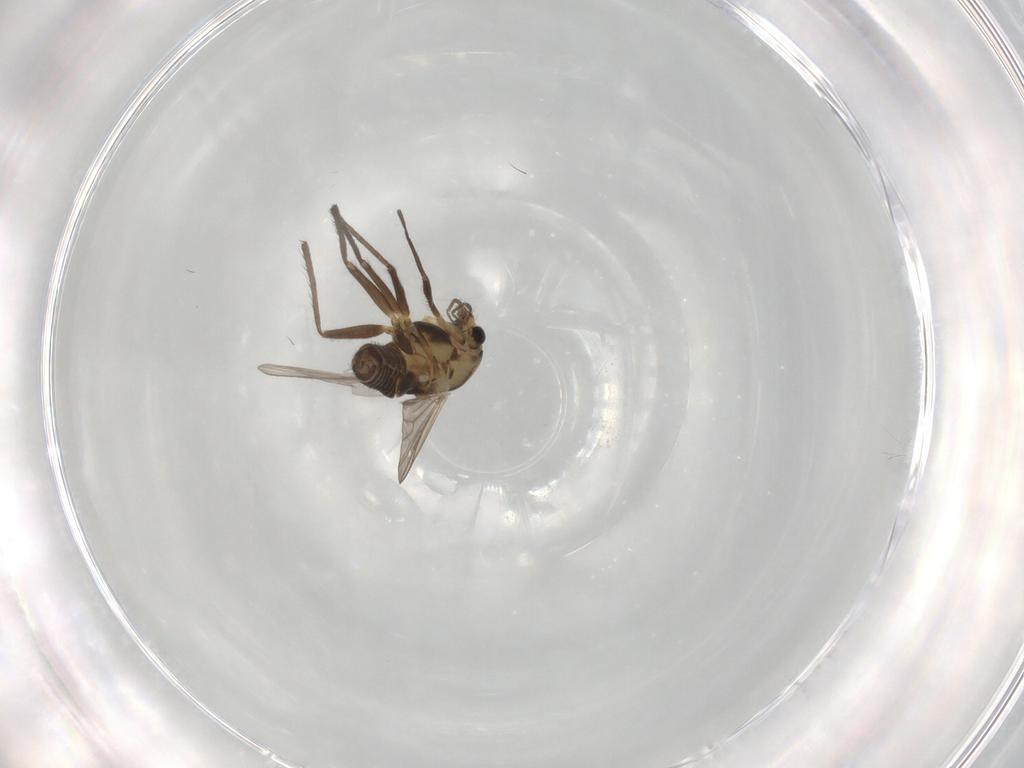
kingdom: Animalia
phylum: Arthropoda
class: Insecta
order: Diptera
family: Chironomidae
